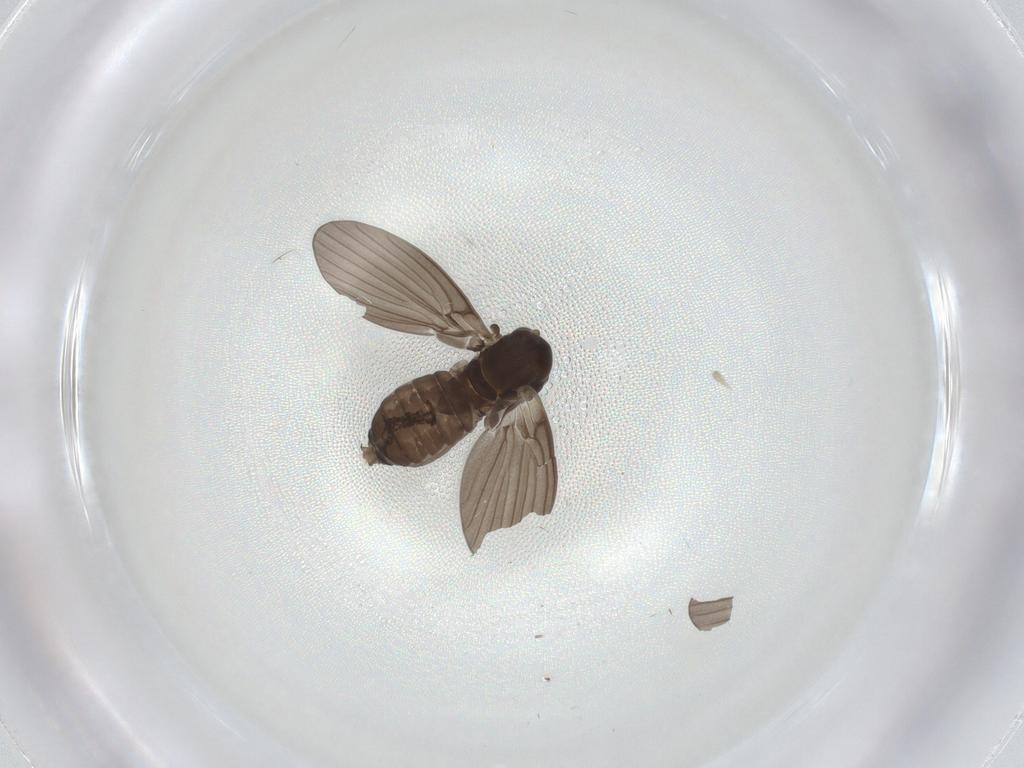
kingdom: Animalia
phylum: Arthropoda
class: Insecta
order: Diptera
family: Psychodidae
